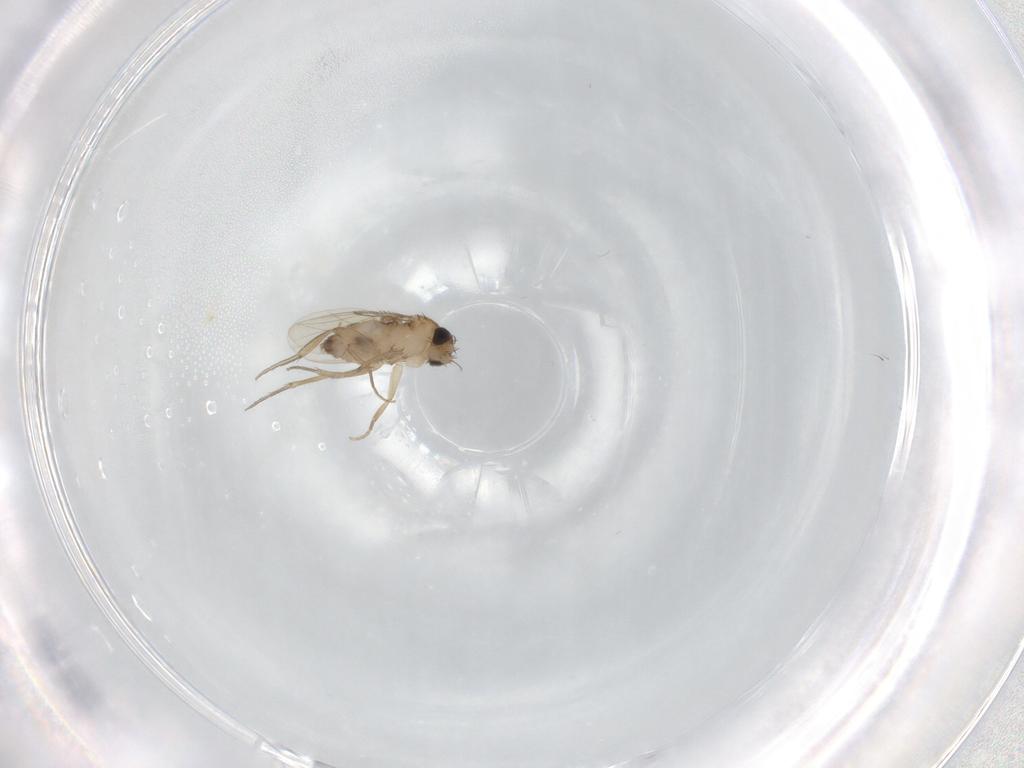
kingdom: Animalia
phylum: Arthropoda
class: Insecta
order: Diptera
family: Phoridae
